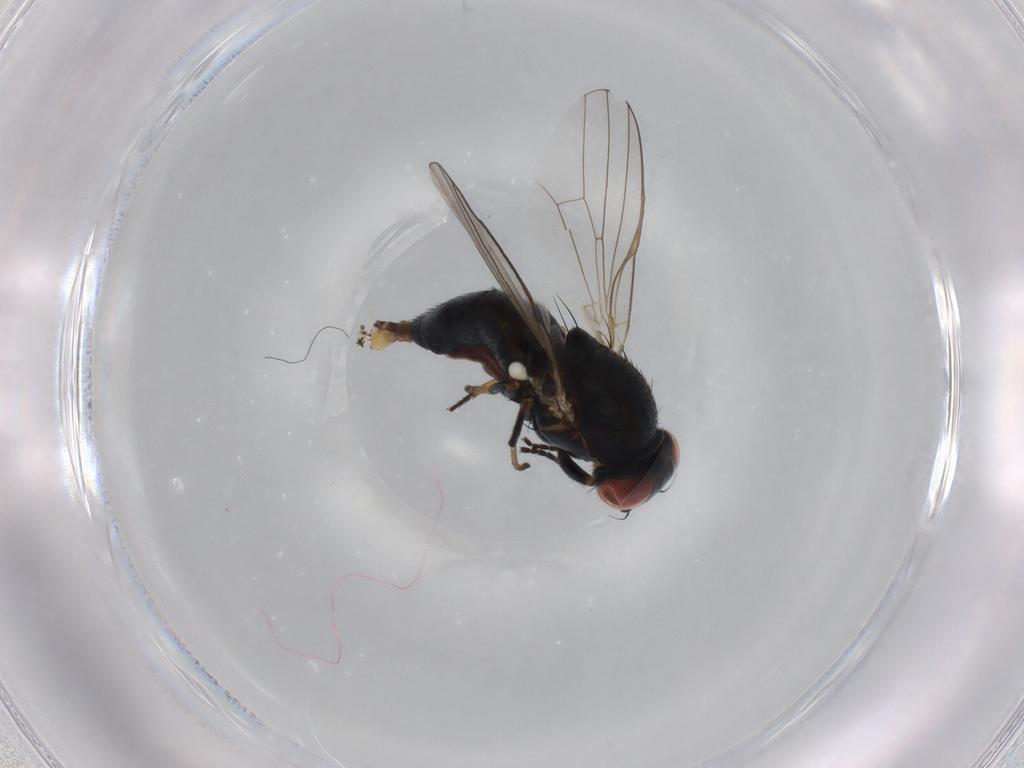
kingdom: Animalia
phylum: Arthropoda
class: Insecta
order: Diptera
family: Chamaemyiidae
